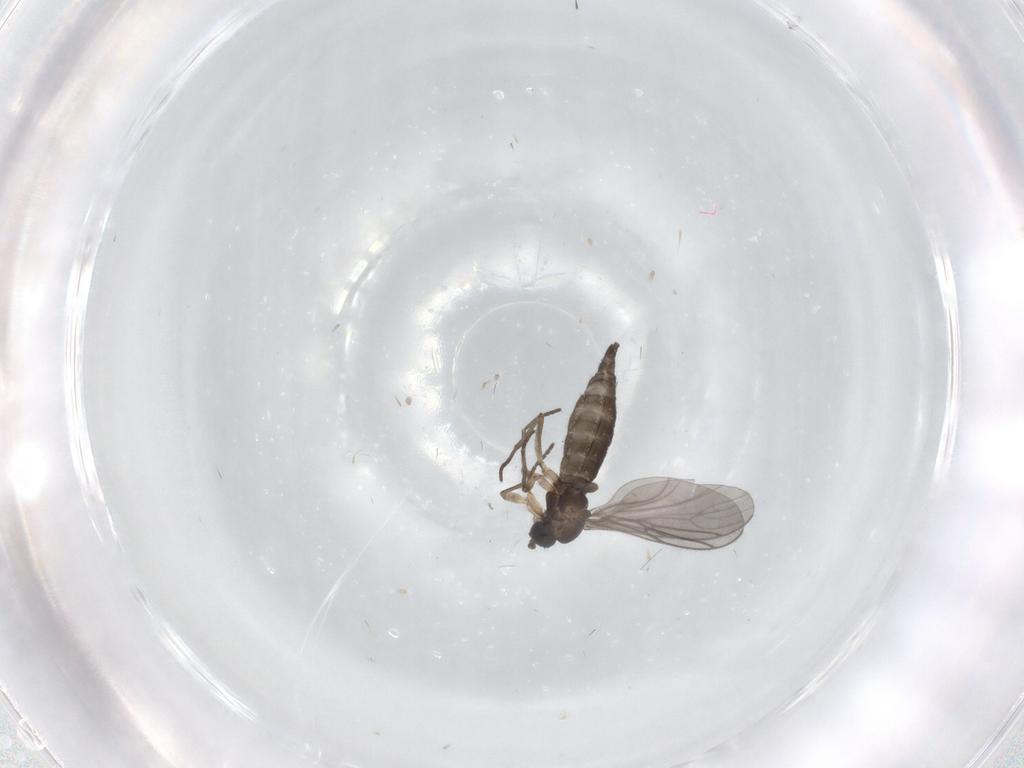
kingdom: Animalia
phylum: Arthropoda
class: Insecta
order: Diptera
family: Sciaridae
